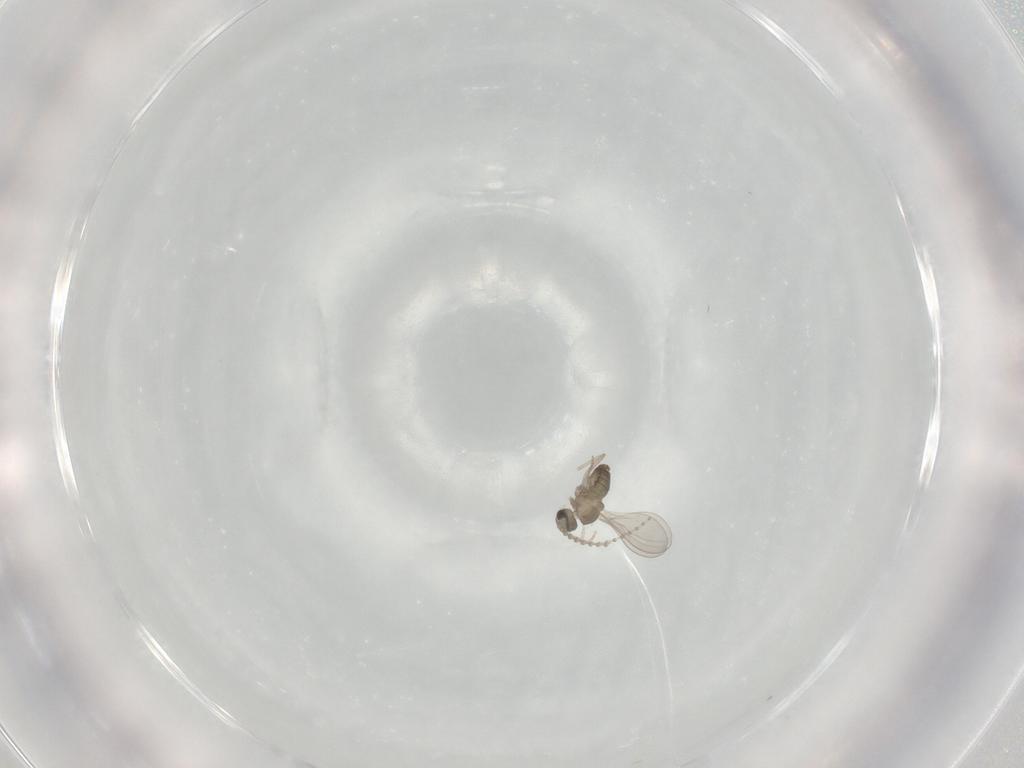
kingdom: Animalia
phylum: Arthropoda
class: Insecta
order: Diptera
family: Cecidomyiidae
